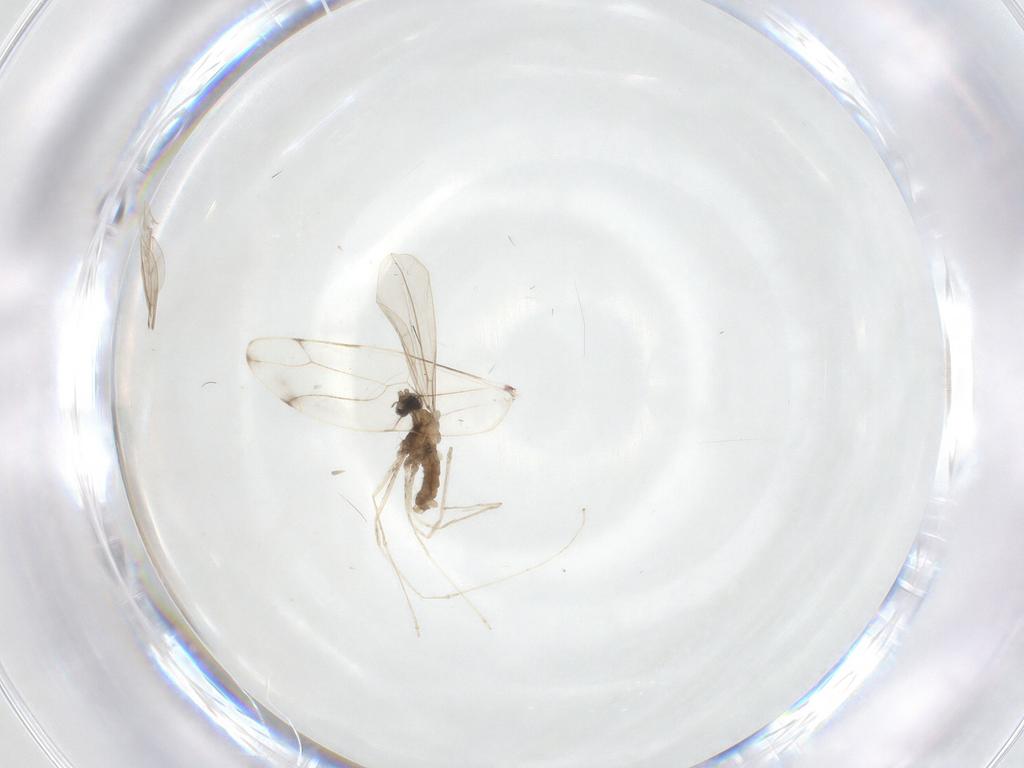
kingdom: Animalia
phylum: Arthropoda
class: Insecta
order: Diptera
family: Cecidomyiidae
